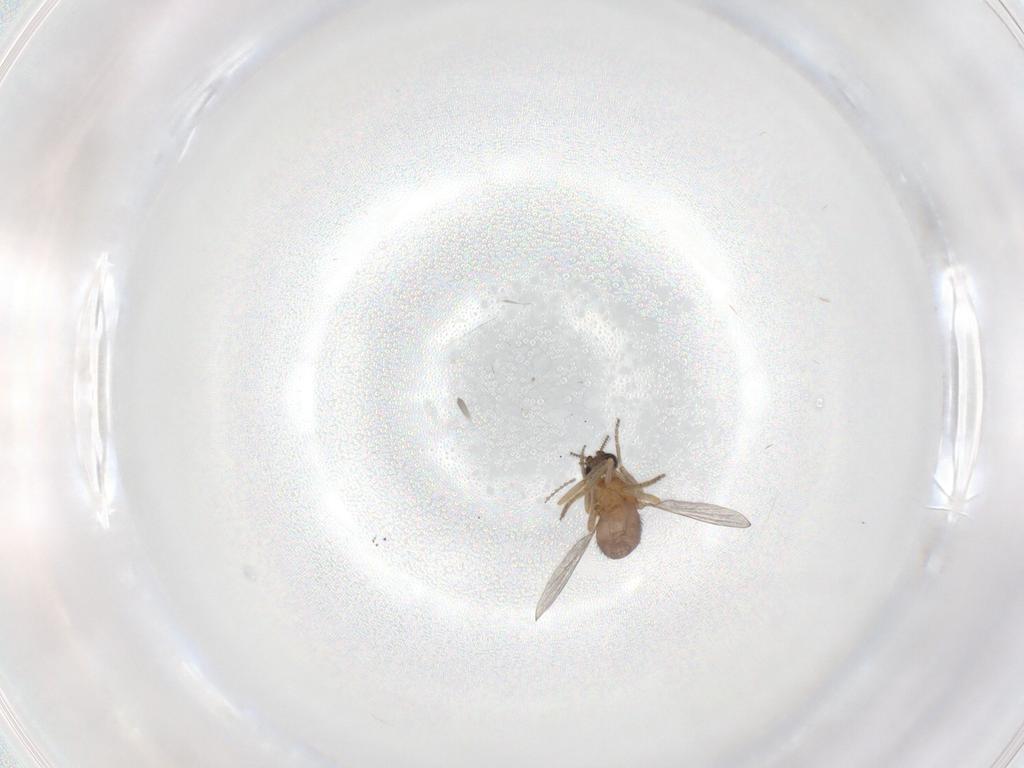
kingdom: Animalia
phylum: Arthropoda
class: Insecta
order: Diptera
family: Ceratopogonidae
